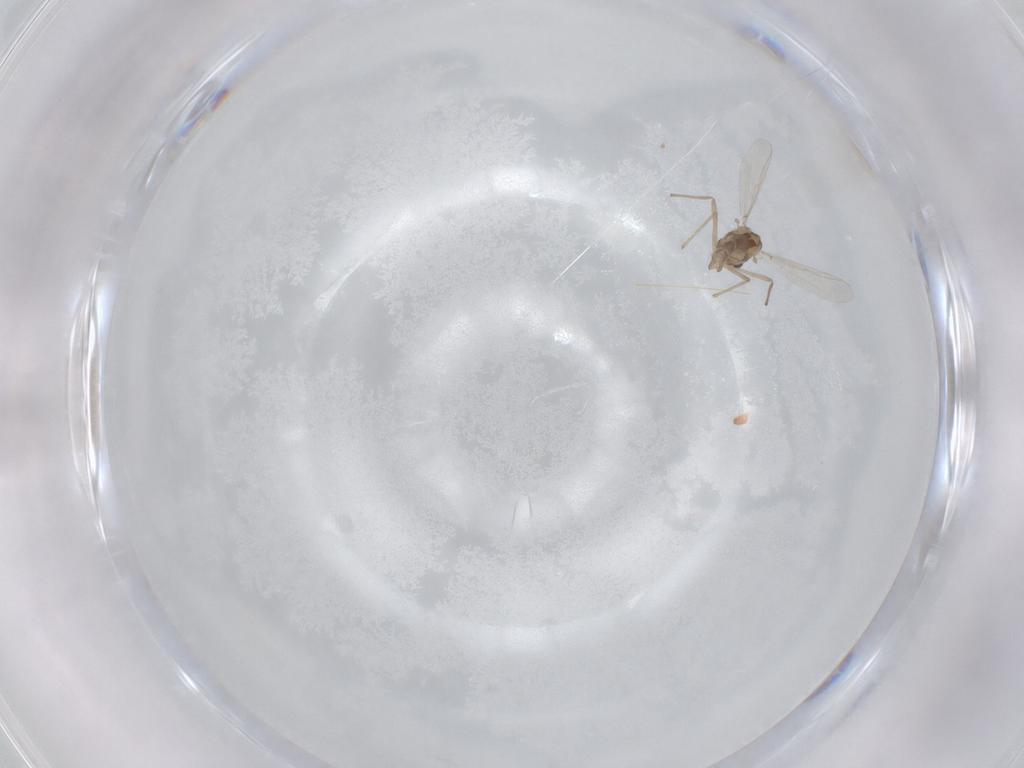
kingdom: Animalia
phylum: Arthropoda
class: Insecta
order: Diptera
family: Chironomidae
